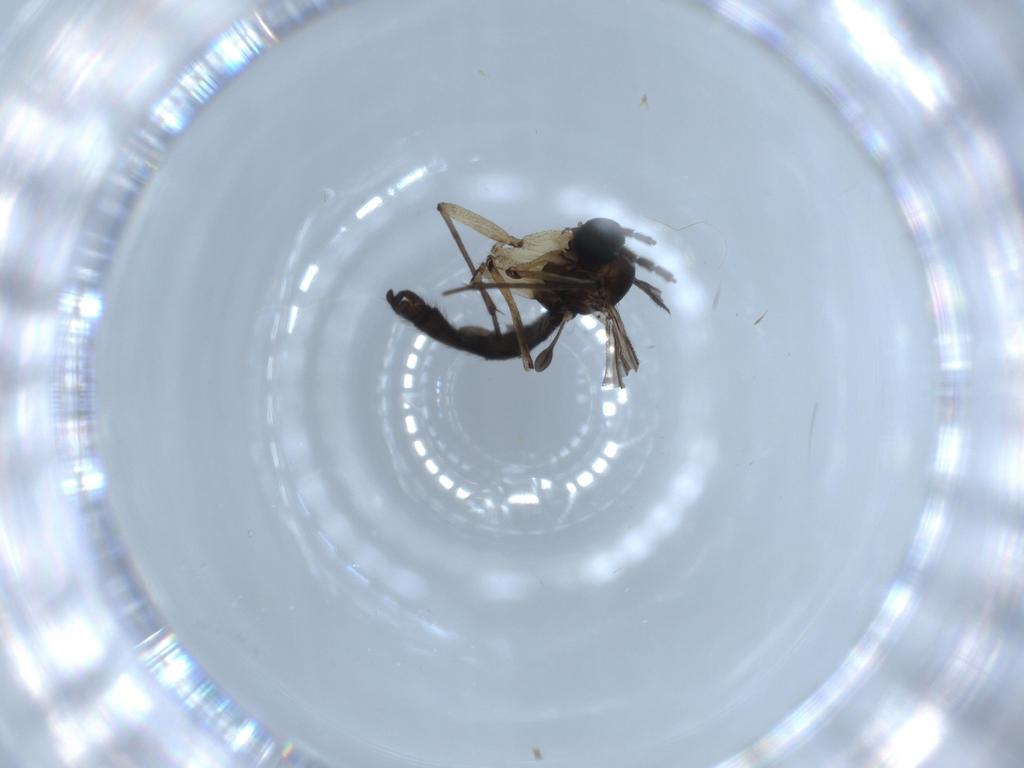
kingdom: Animalia
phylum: Arthropoda
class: Insecta
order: Diptera
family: Sciaridae
